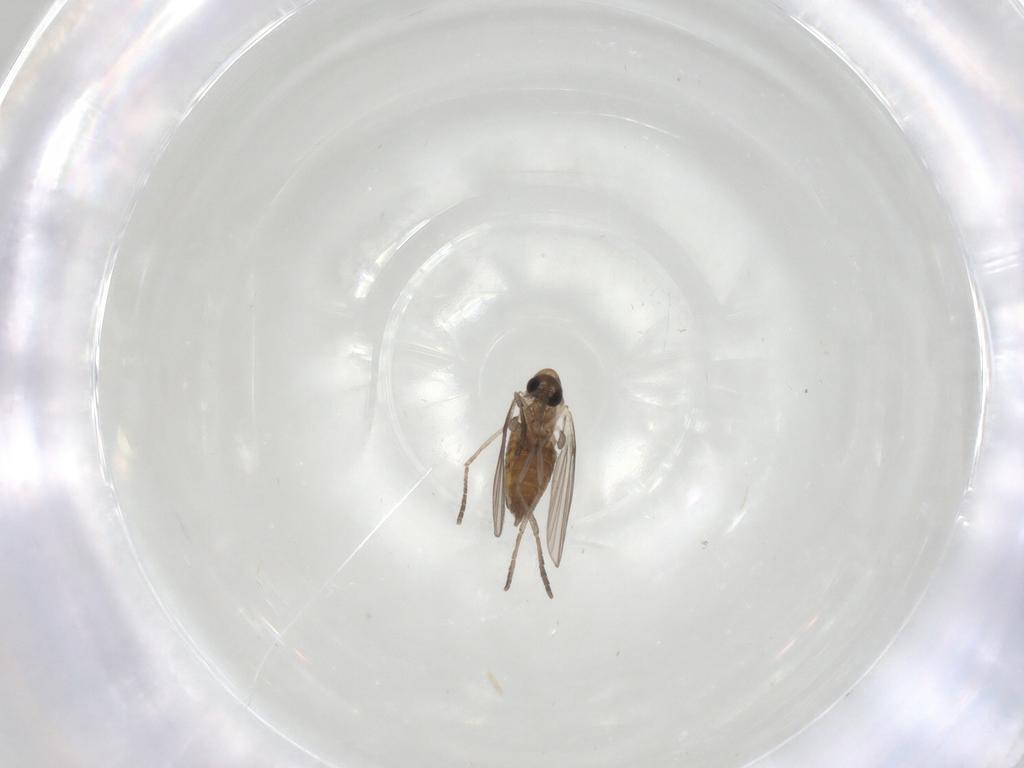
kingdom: Animalia
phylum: Arthropoda
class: Insecta
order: Diptera
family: Ceratopogonidae
